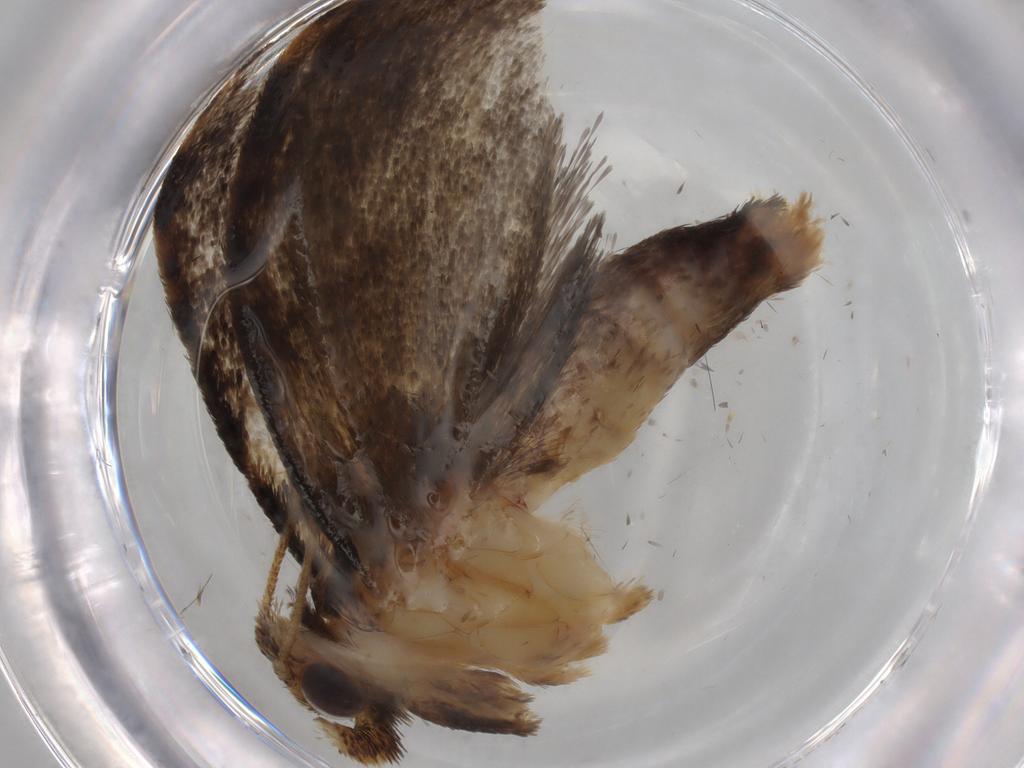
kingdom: Animalia
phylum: Arthropoda
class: Insecta
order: Lepidoptera
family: Tineidae
